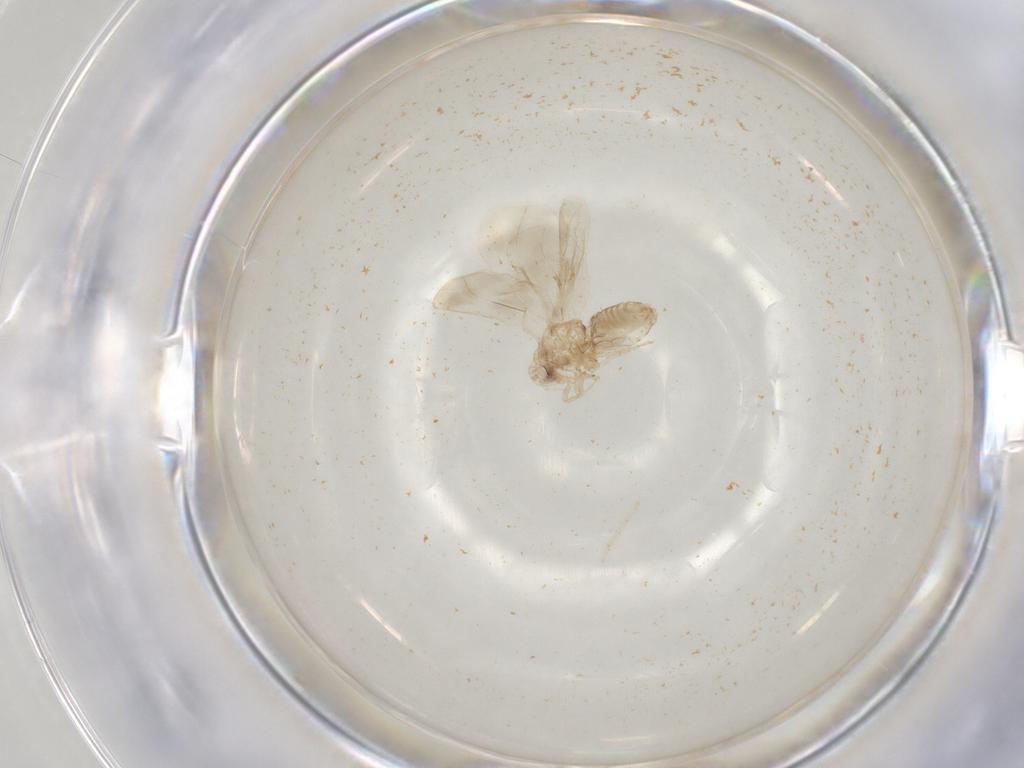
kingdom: Animalia
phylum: Arthropoda
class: Insecta
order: Hemiptera
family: Aleyrodidae
